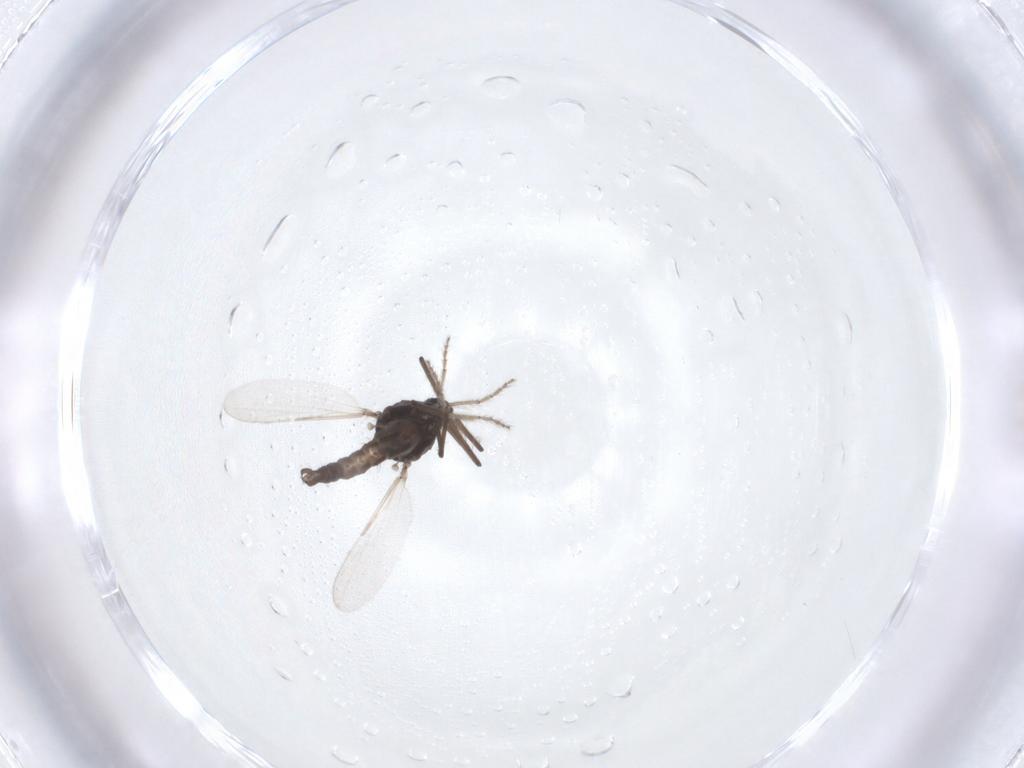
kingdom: Animalia
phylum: Arthropoda
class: Insecta
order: Diptera
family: Ceratopogonidae
